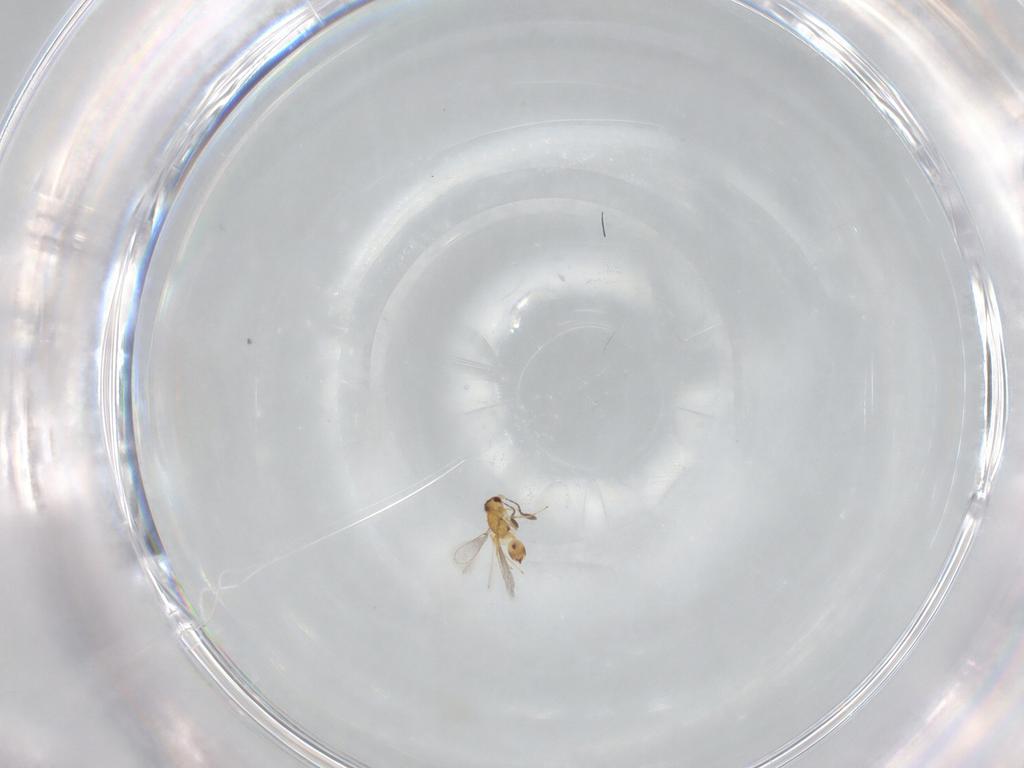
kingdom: Animalia
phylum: Arthropoda
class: Insecta
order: Hymenoptera
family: Mymaridae
